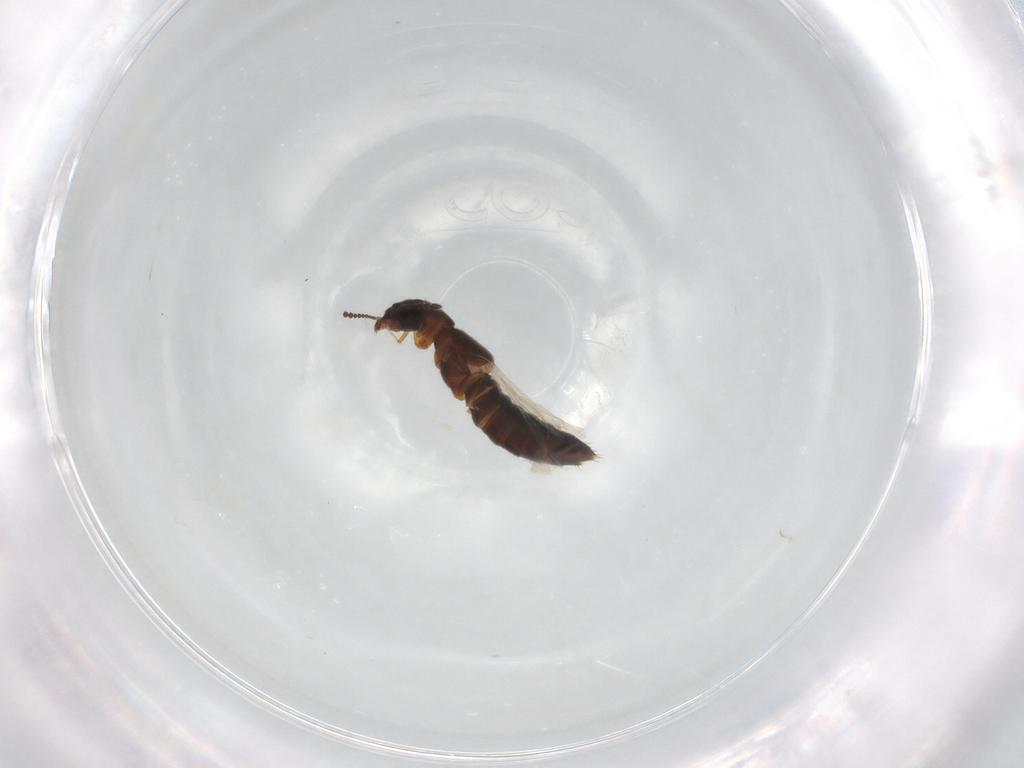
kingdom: Animalia
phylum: Arthropoda
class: Insecta
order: Coleoptera
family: Staphylinidae
